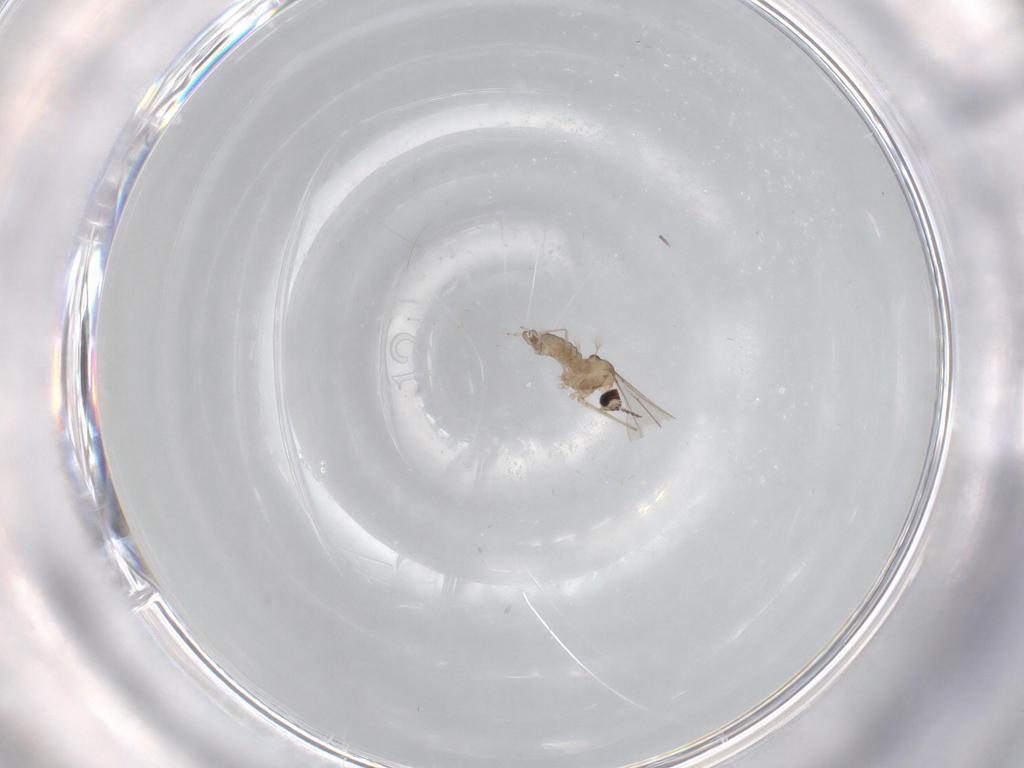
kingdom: Animalia
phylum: Arthropoda
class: Insecta
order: Diptera
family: Cecidomyiidae
